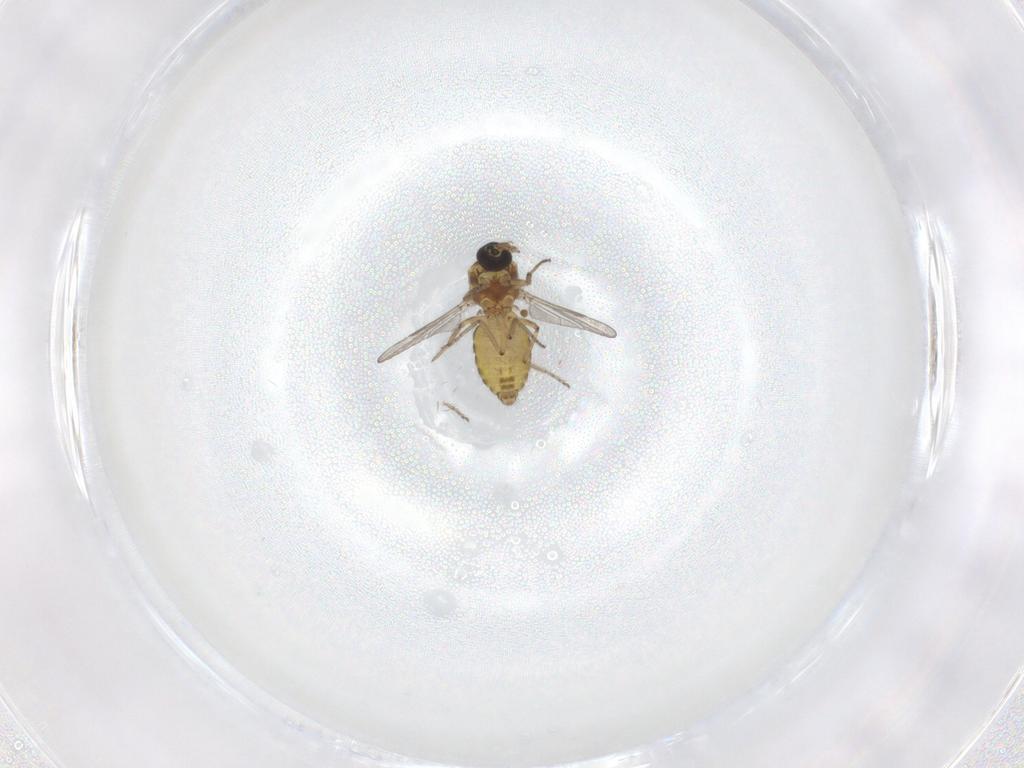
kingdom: Animalia
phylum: Arthropoda
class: Insecta
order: Diptera
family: Ceratopogonidae
